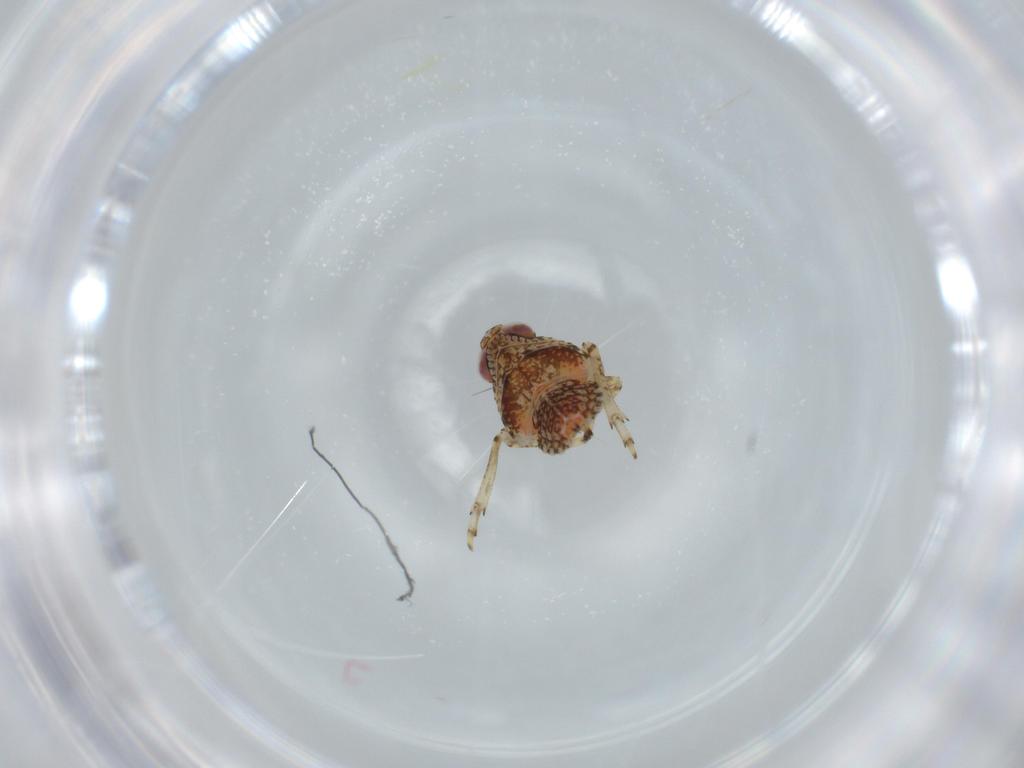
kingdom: Animalia
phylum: Arthropoda
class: Insecta
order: Hemiptera
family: Issidae
